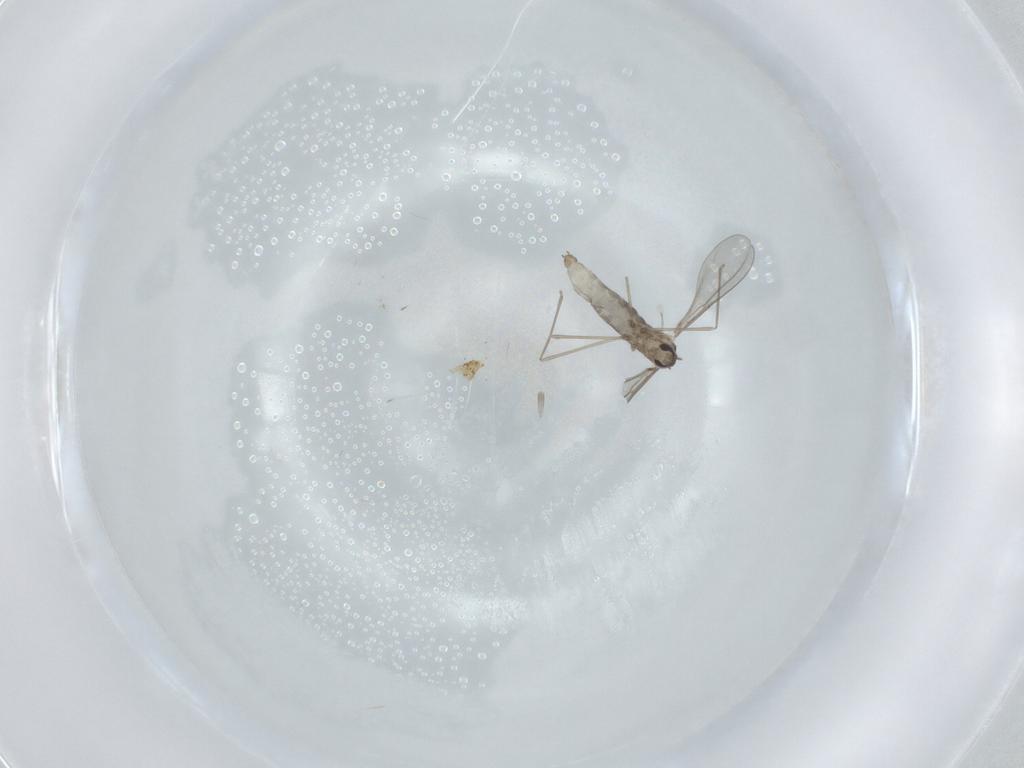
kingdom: Animalia
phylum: Arthropoda
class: Insecta
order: Diptera
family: Cecidomyiidae
